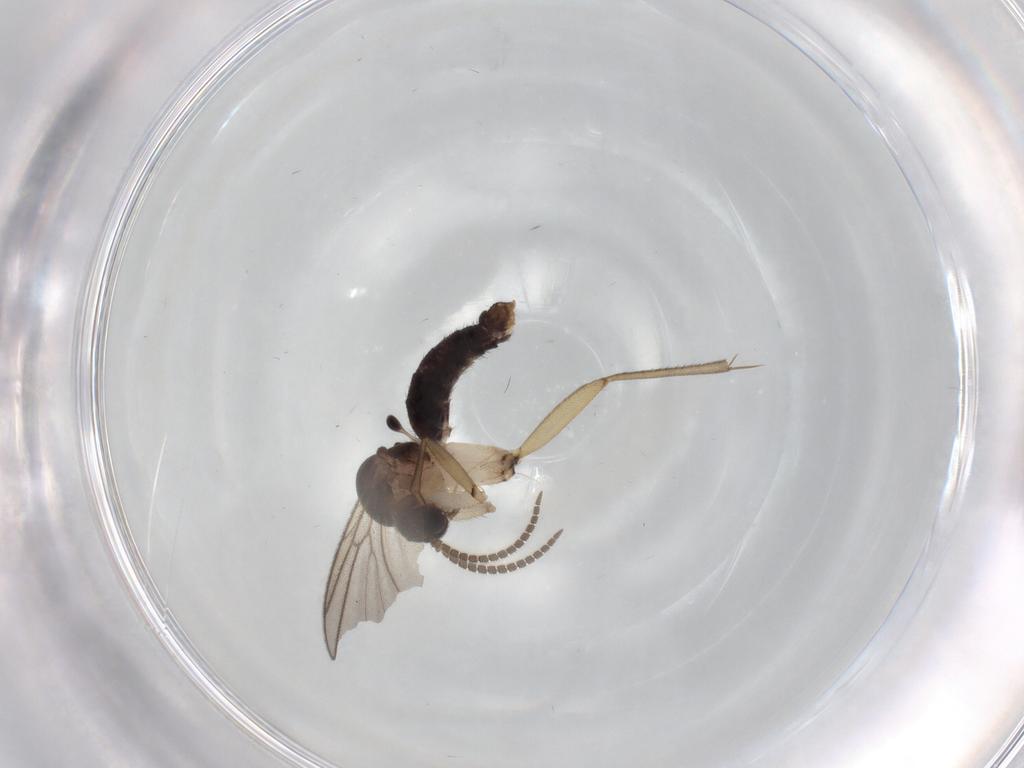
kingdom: Animalia
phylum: Arthropoda
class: Insecta
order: Diptera
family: Mycetophilidae
